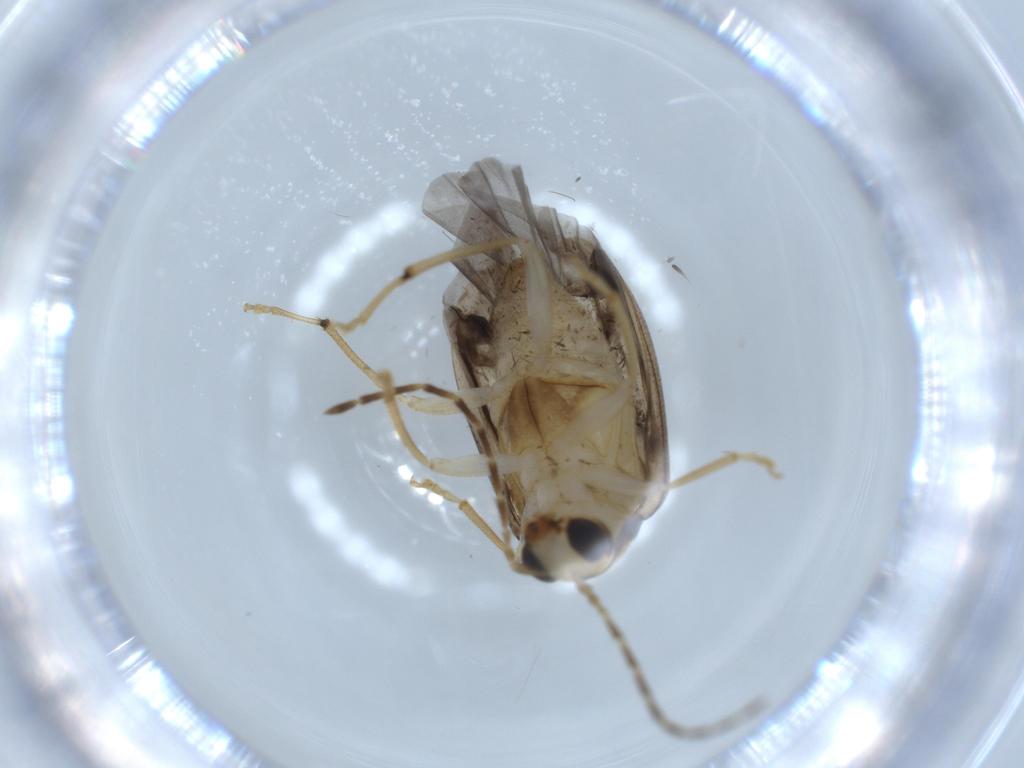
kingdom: Animalia
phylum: Arthropoda
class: Insecta
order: Coleoptera
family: Chrysomelidae
